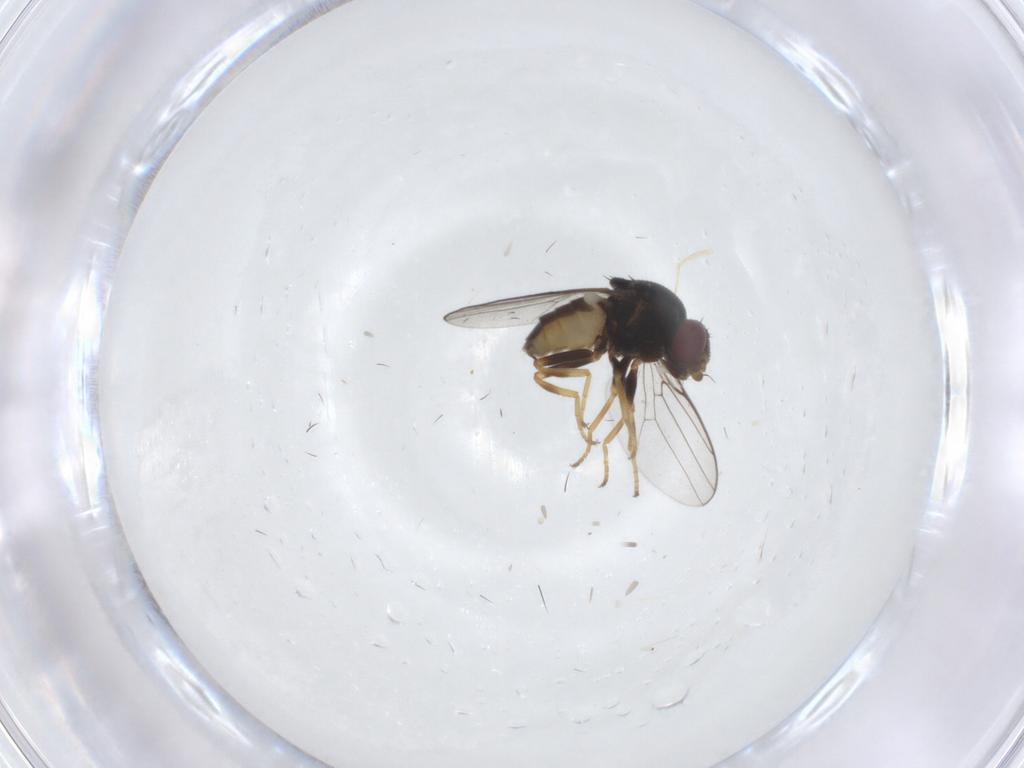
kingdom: Animalia
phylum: Arthropoda
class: Insecta
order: Diptera
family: Chloropidae
